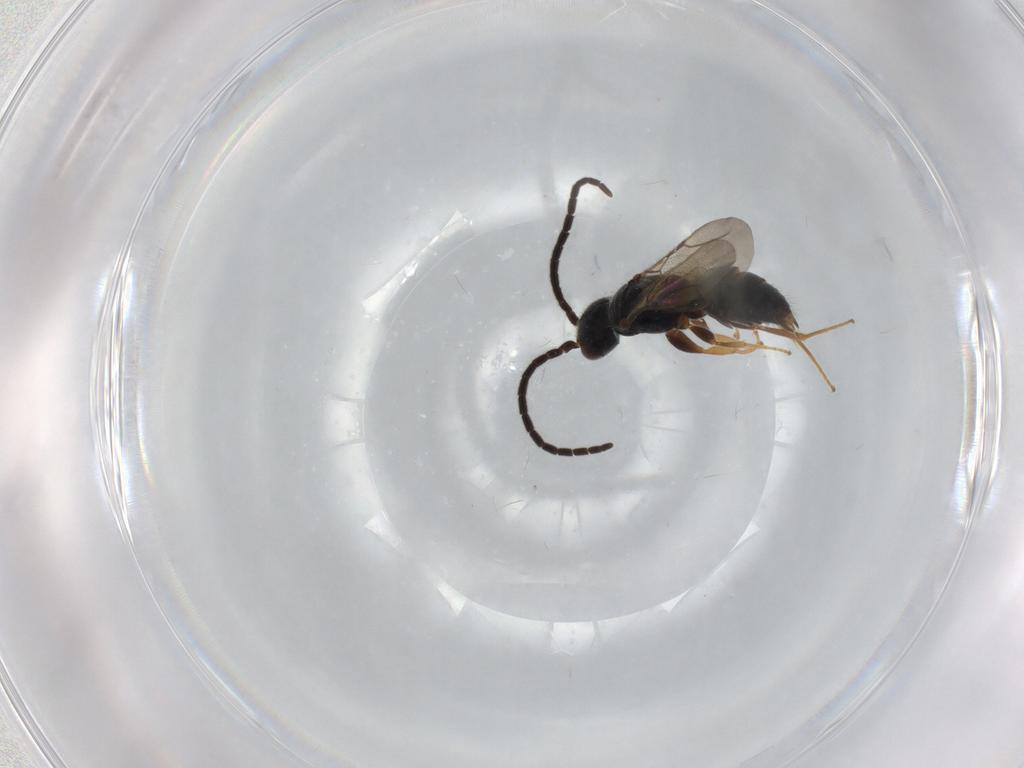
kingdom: Animalia
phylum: Arthropoda
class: Insecta
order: Hymenoptera
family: Bethylidae
